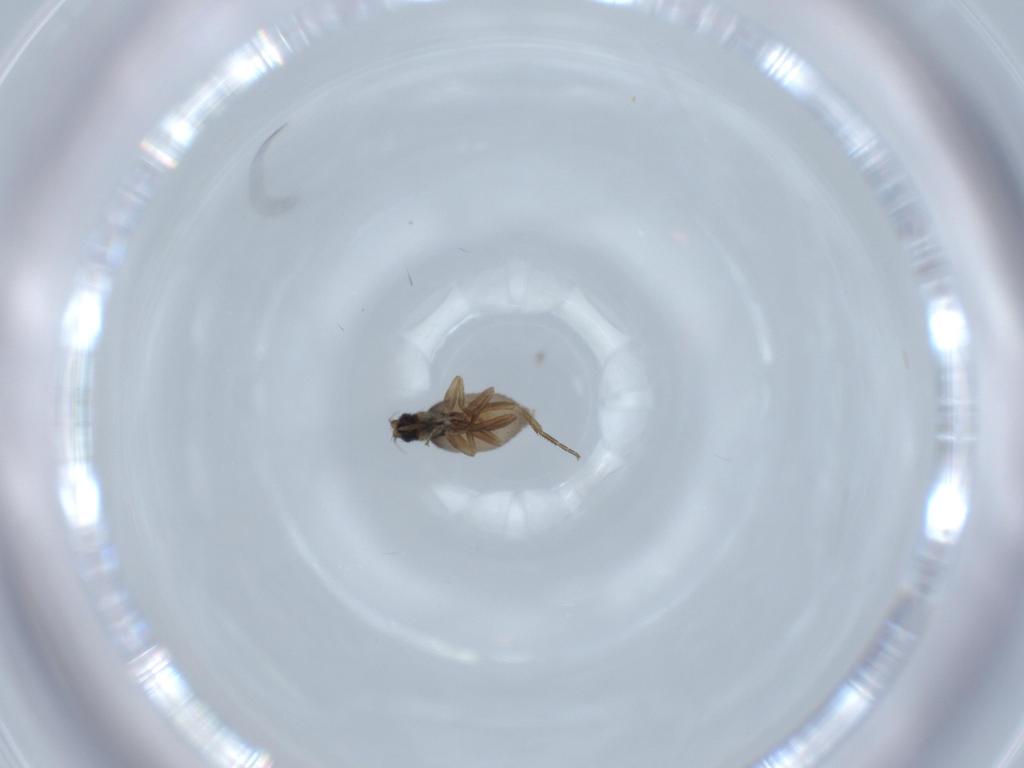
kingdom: Animalia
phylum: Arthropoda
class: Insecta
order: Diptera
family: Phoridae
